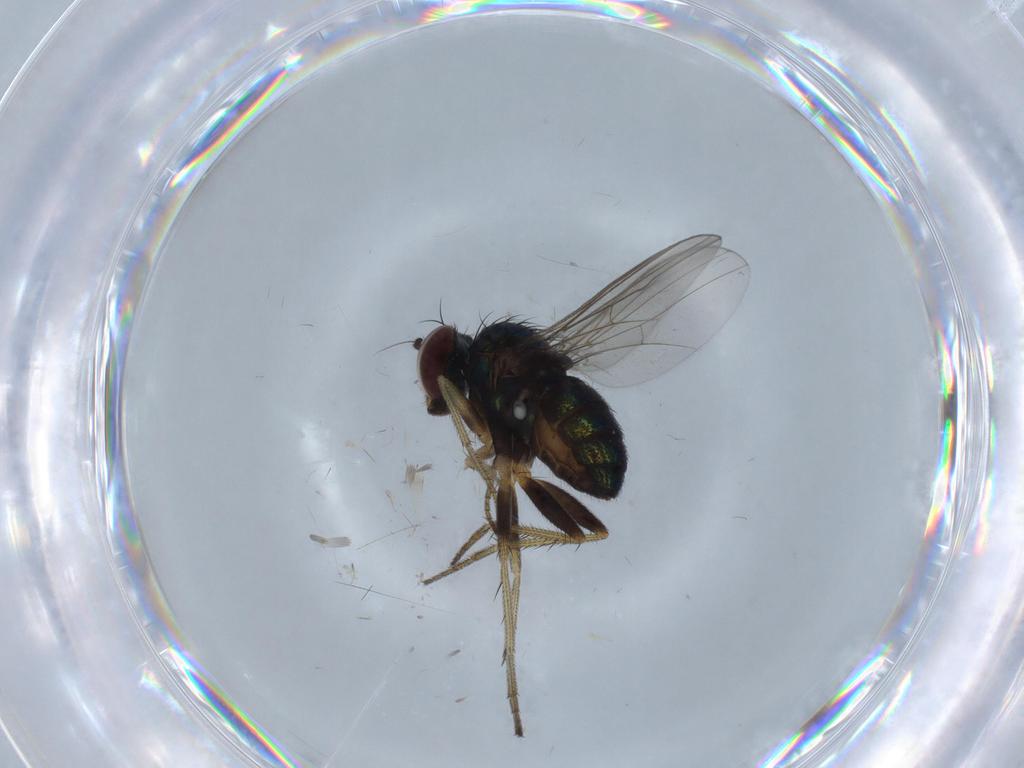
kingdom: Animalia
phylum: Arthropoda
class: Insecta
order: Diptera
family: Dolichopodidae
